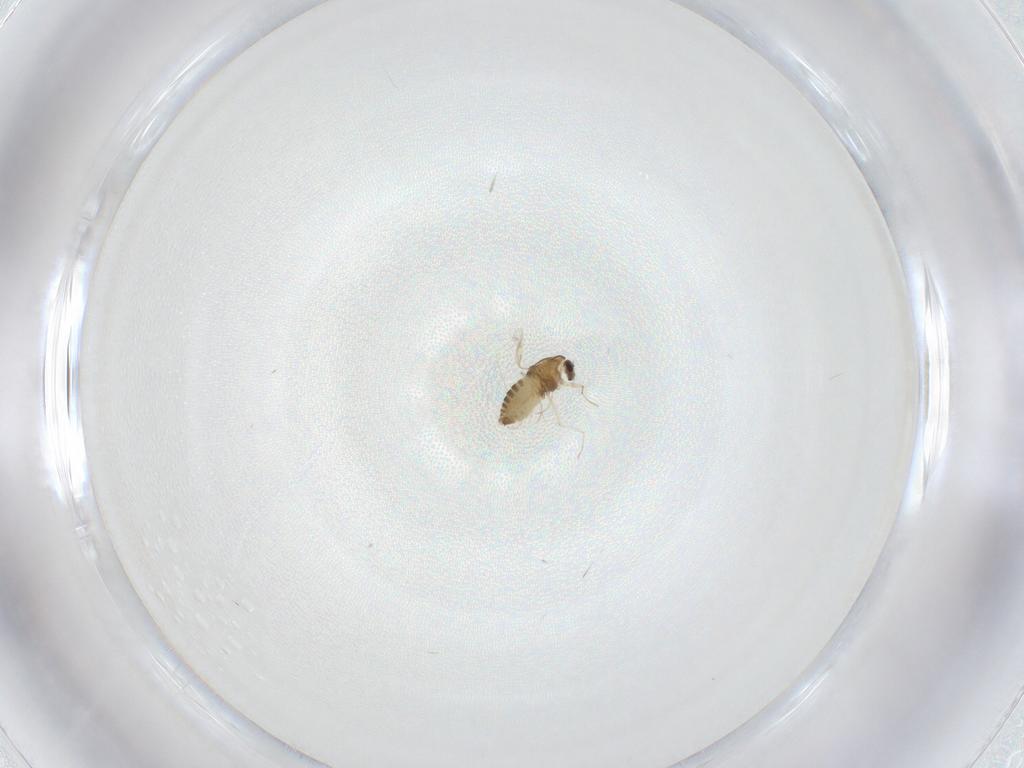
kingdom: Animalia
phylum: Arthropoda
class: Insecta
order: Diptera
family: Chironomidae
